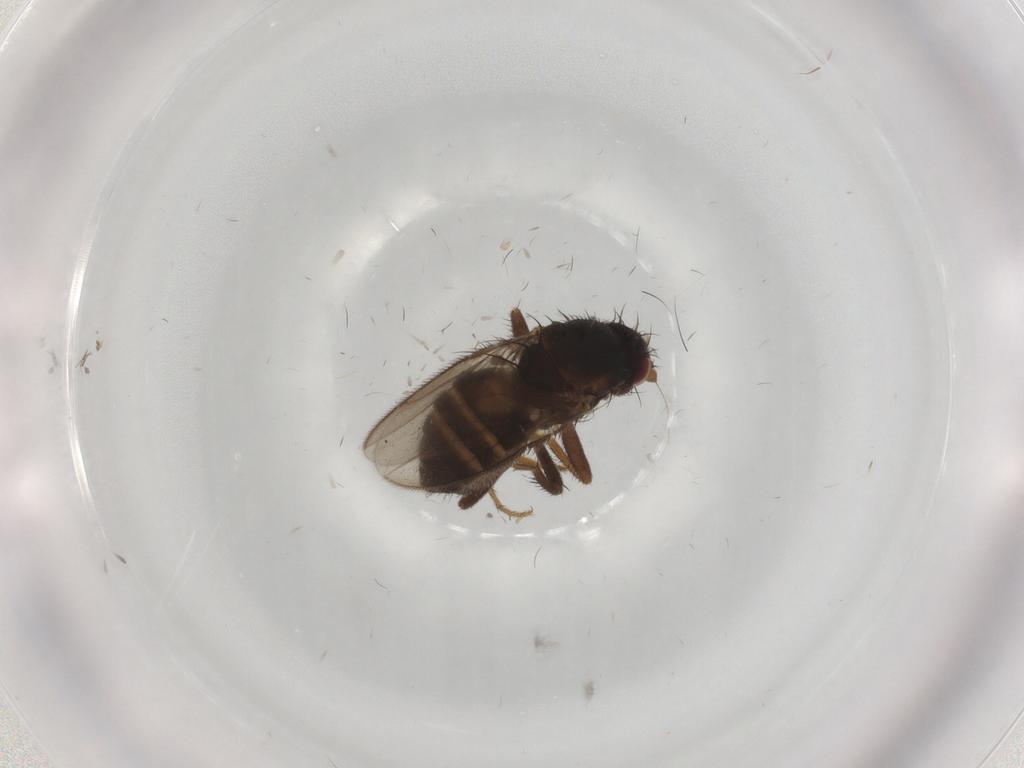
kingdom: Animalia
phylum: Arthropoda
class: Insecta
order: Diptera
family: Sphaeroceridae
